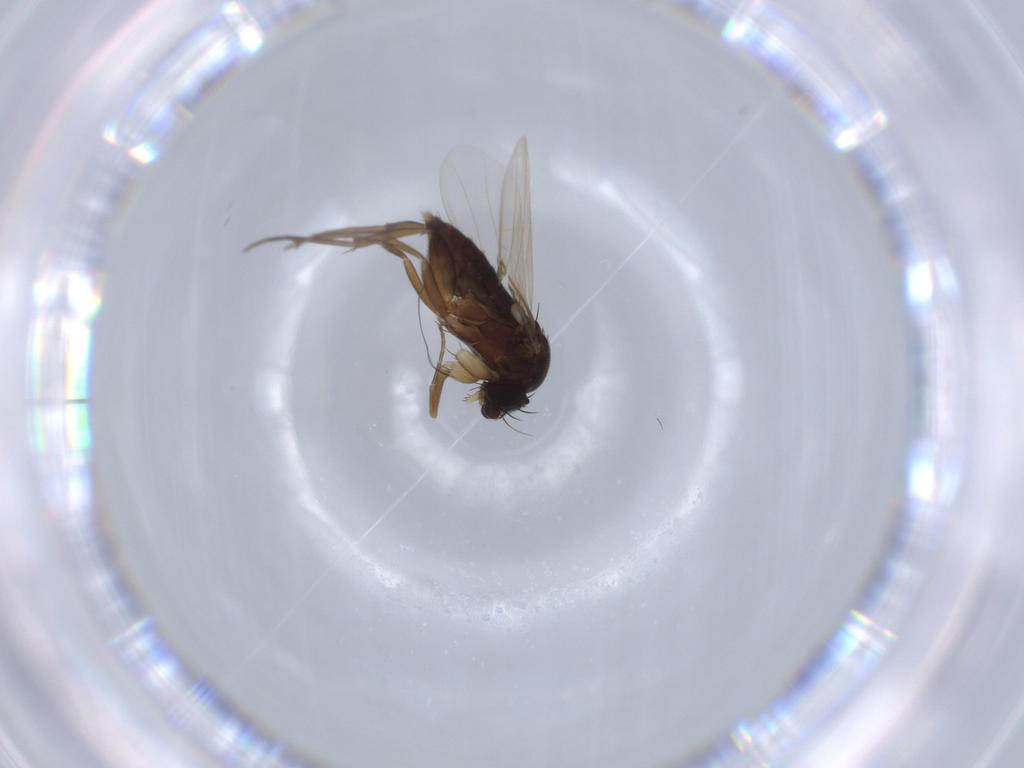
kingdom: Animalia
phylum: Arthropoda
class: Insecta
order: Diptera
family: Phoridae
